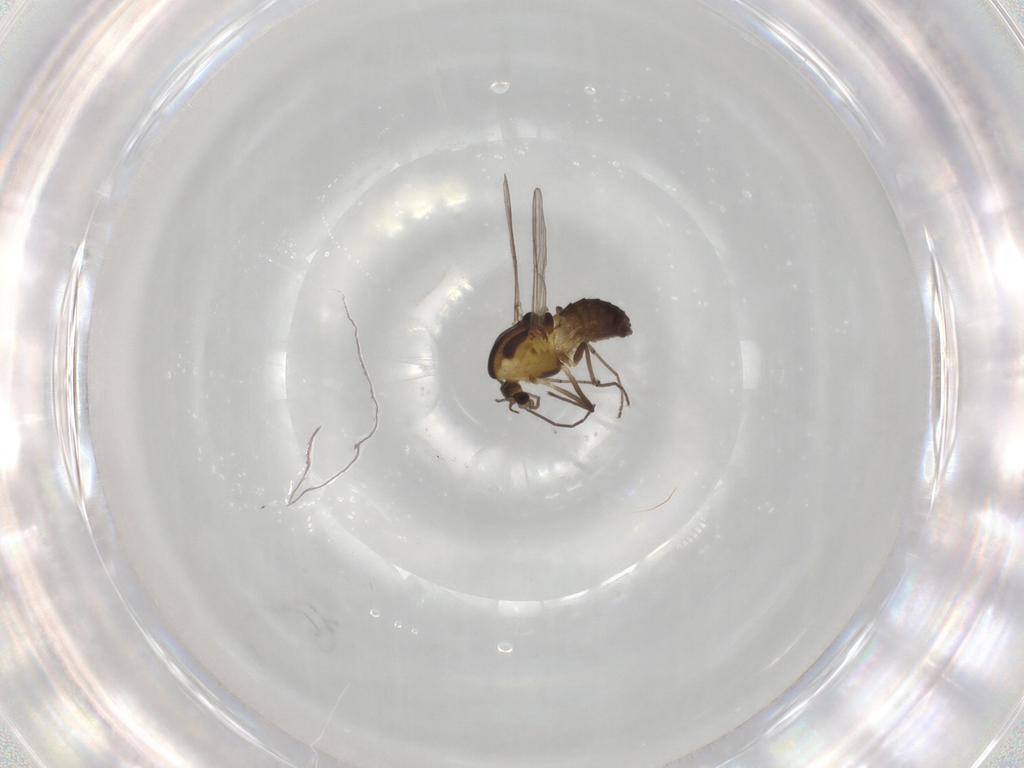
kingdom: Animalia
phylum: Arthropoda
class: Insecta
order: Diptera
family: Chironomidae
